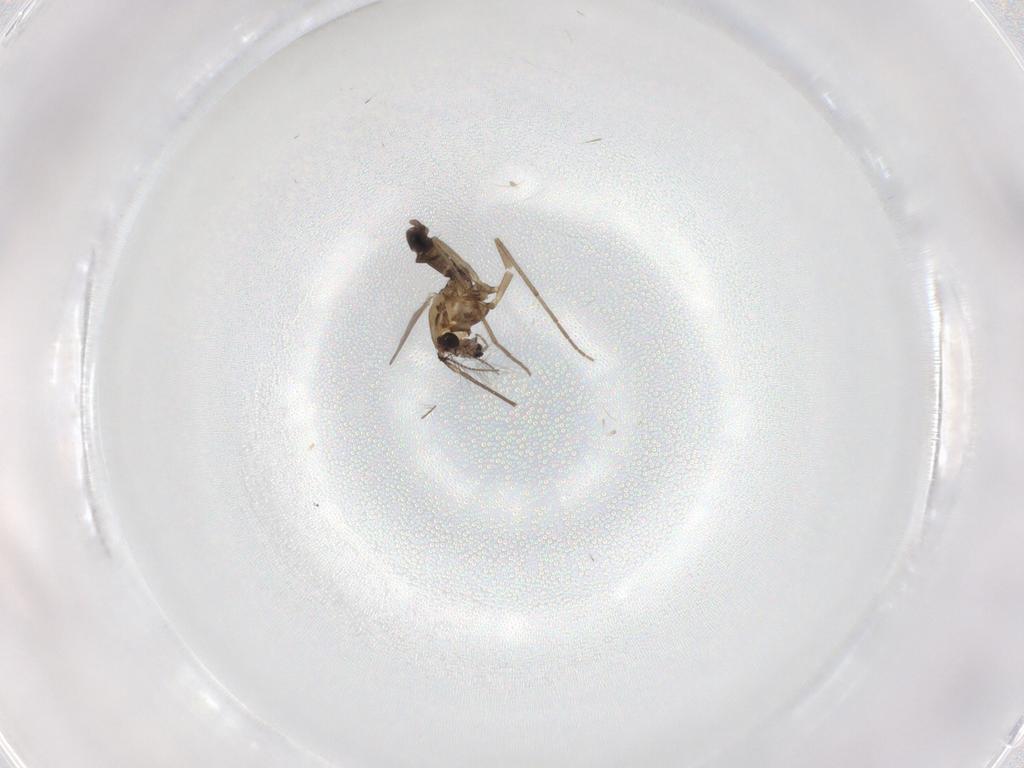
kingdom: Animalia
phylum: Arthropoda
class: Insecta
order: Diptera
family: Chironomidae
